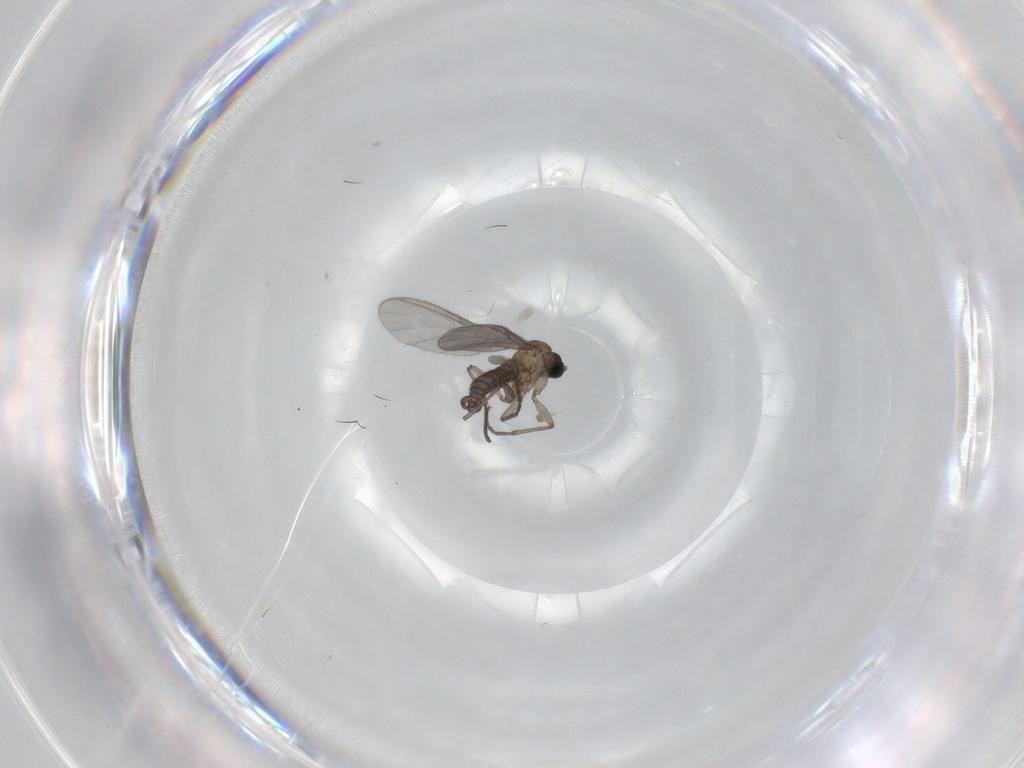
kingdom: Animalia
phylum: Arthropoda
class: Insecta
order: Diptera
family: Sciaridae
